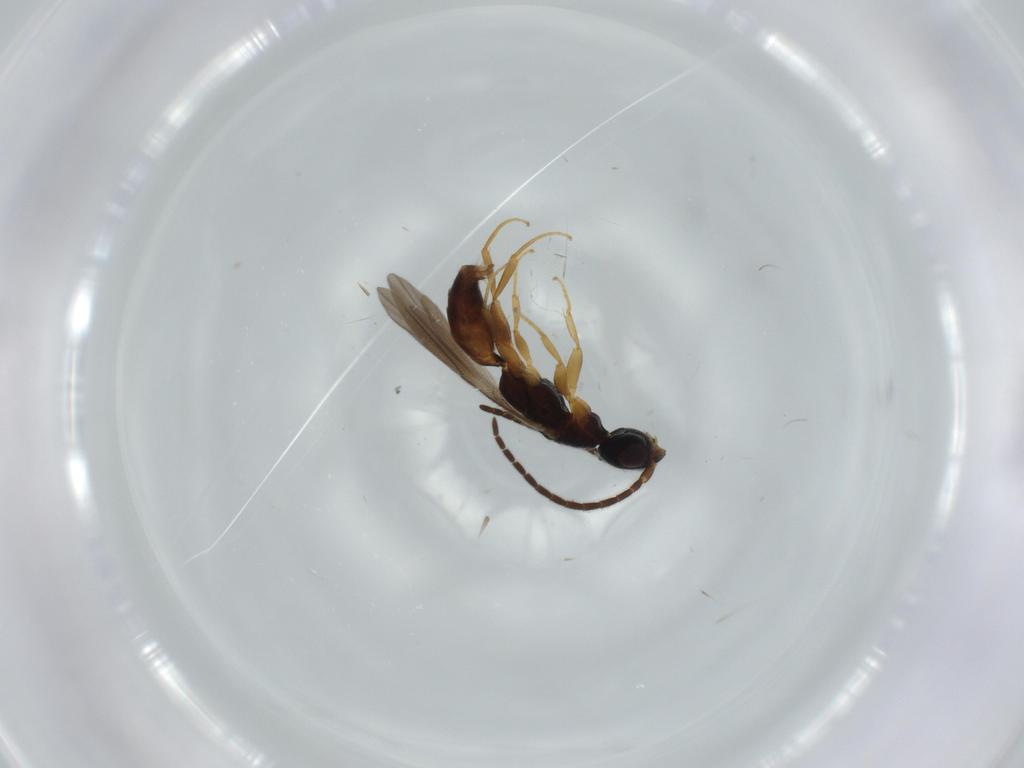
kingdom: Animalia
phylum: Arthropoda
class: Insecta
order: Hymenoptera
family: Bethylidae
